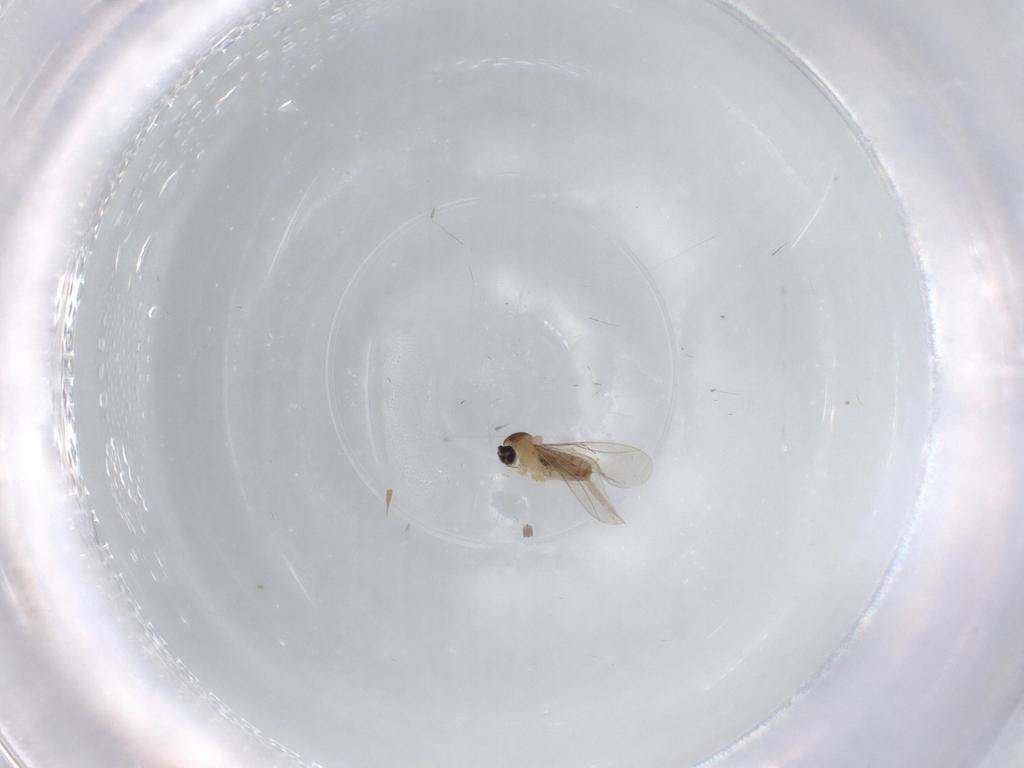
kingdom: Animalia
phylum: Arthropoda
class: Insecta
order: Diptera
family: Cecidomyiidae
